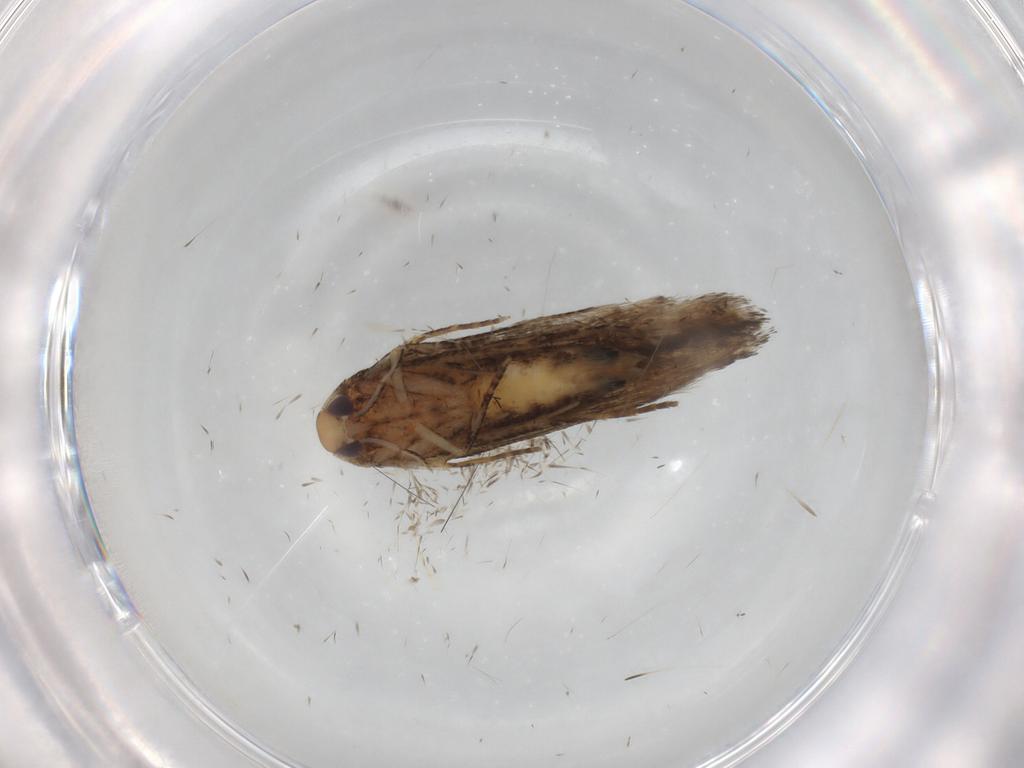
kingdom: Animalia
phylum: Arthropoda
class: Insecta
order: Lepidoptera
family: Cosmopterigidae
